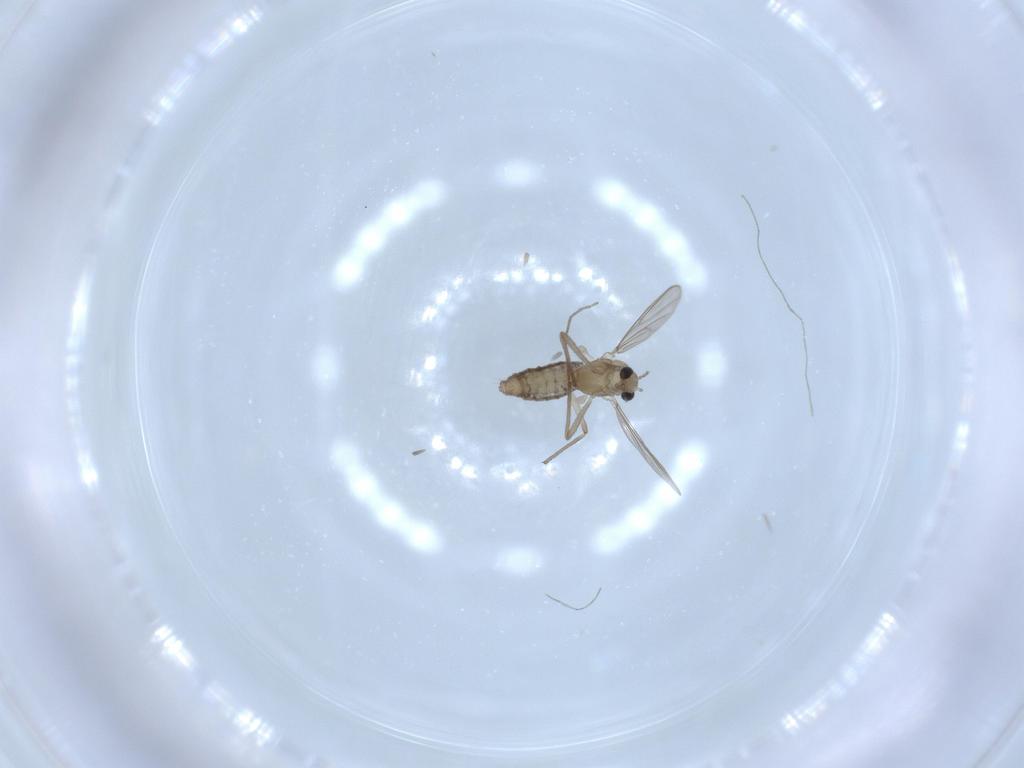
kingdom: Animalia
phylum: Arthropoda
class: Insecta
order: Diptera
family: Chironomidae
